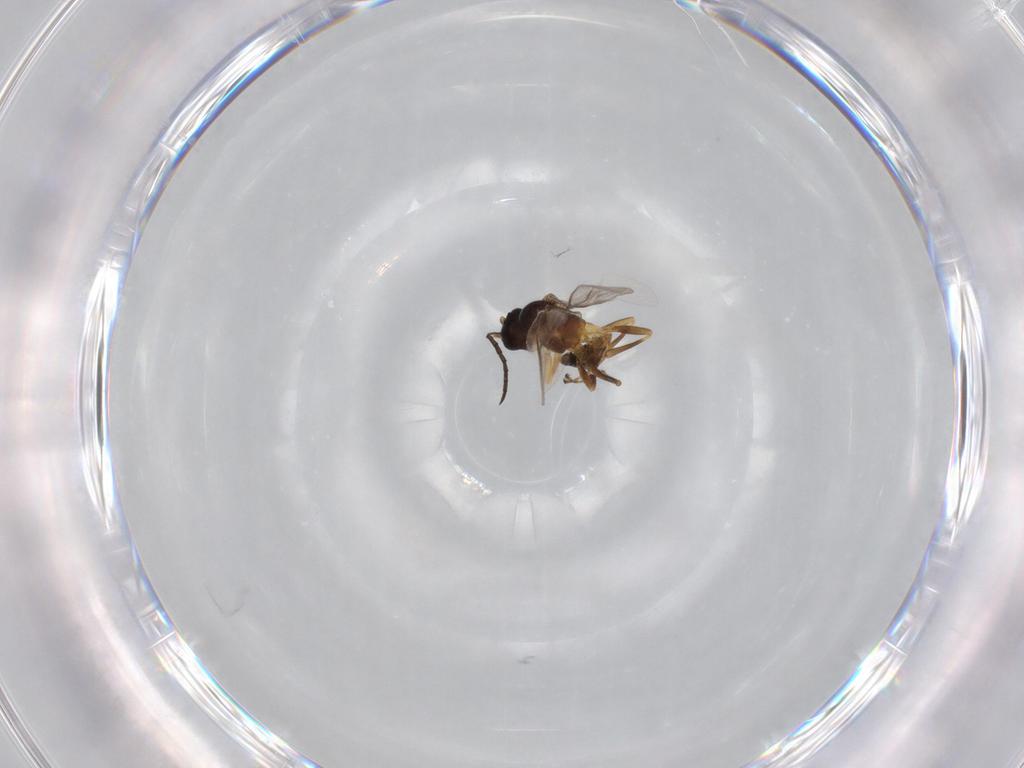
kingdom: Animalia
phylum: Arthropoda
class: Insecta
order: Hymenoptera
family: Braconidae
